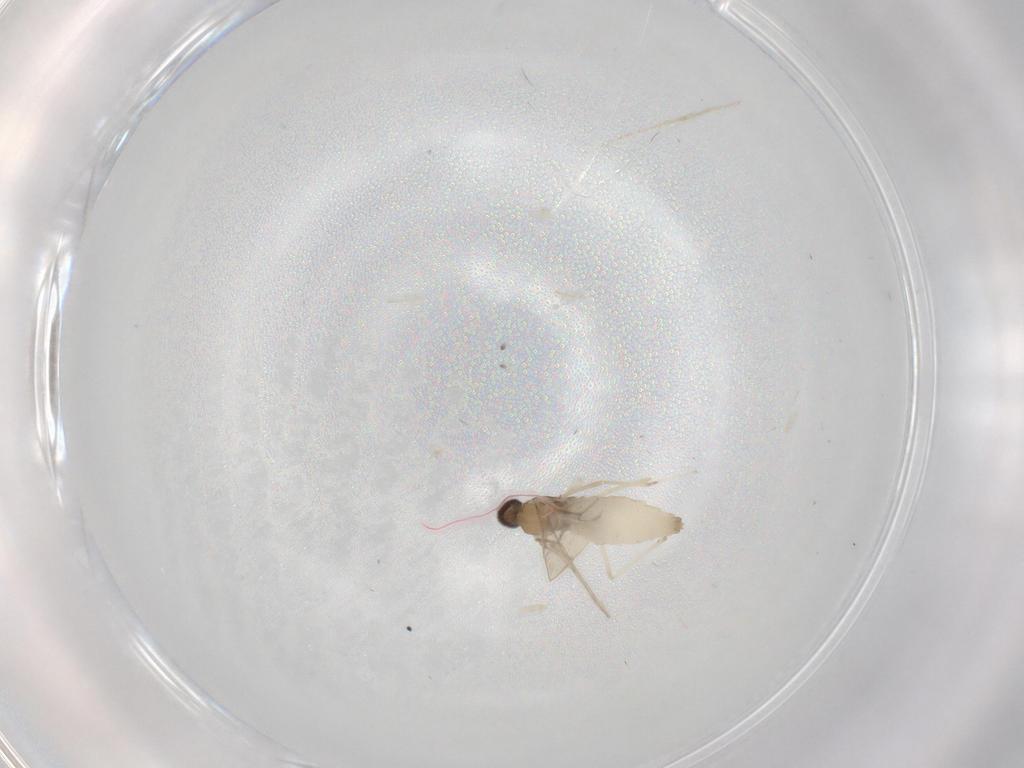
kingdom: Animalia
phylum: Arthropoda
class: Insecta
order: Diptera
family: Cecidomyiidae
